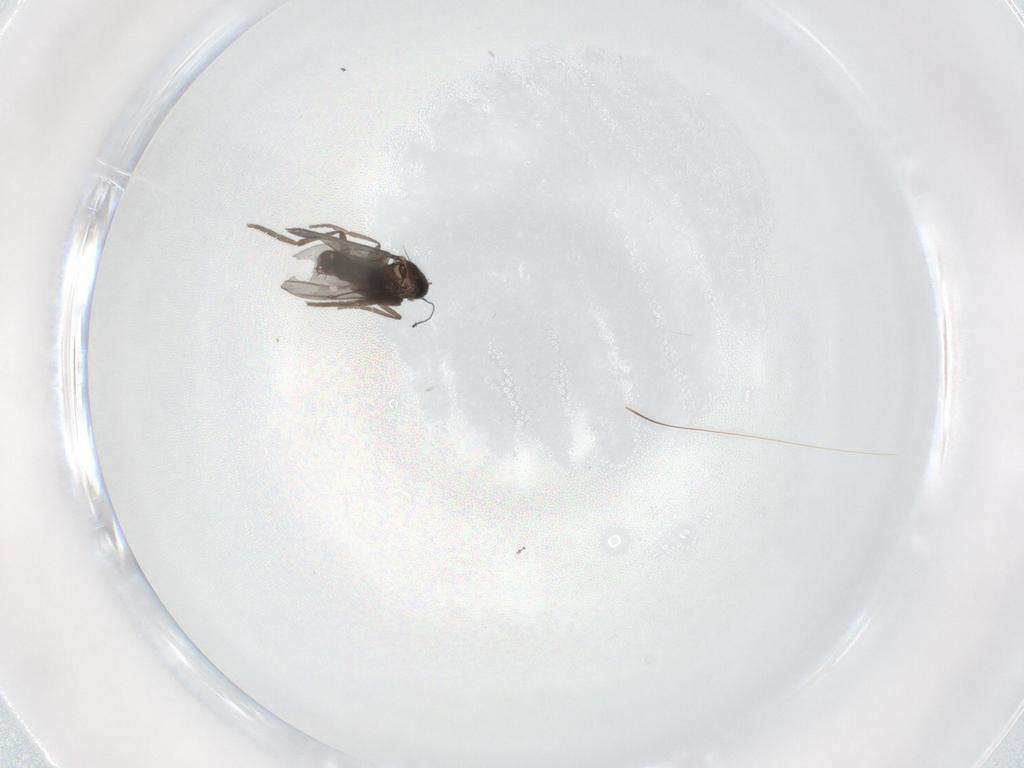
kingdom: Animalia
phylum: Arthropoda
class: Insecta
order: Diptera
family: Phoridae
